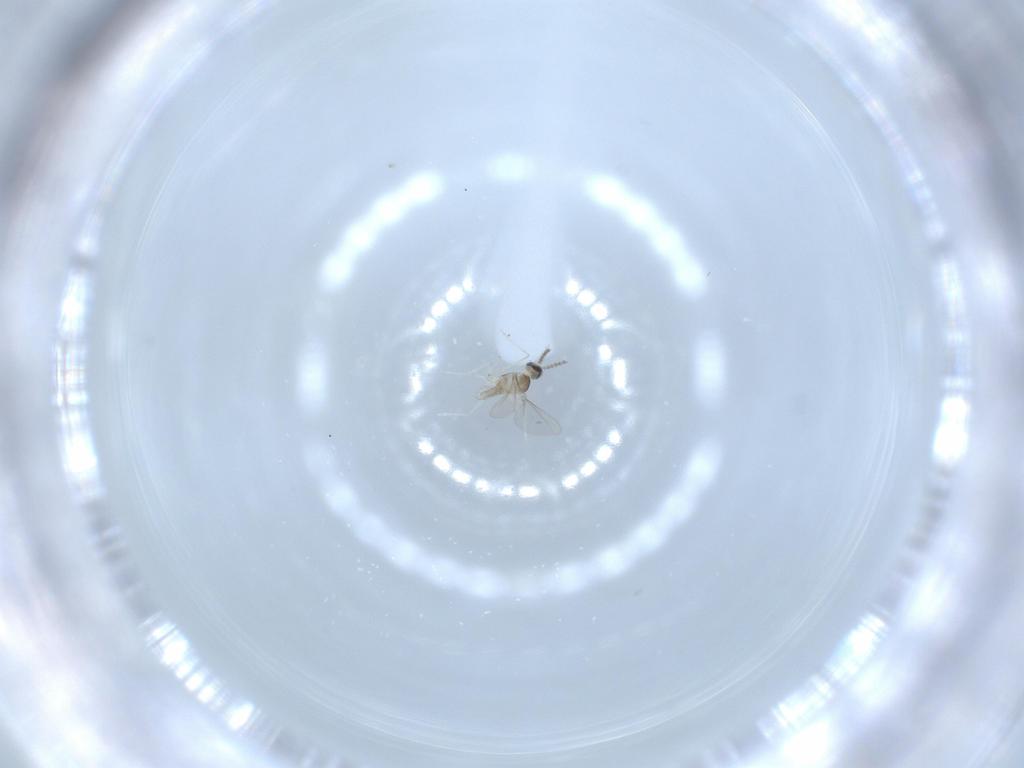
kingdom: Animalia
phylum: Arthropoda
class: Insecta
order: Diptera
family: Cecidomyiidae
